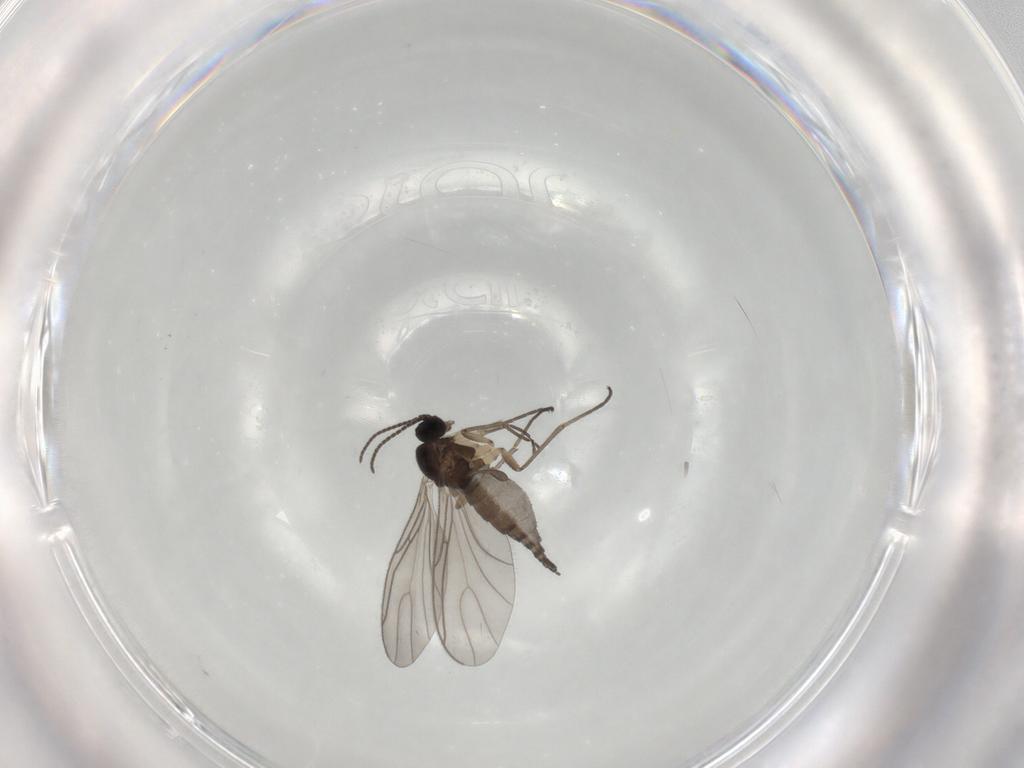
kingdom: Animalia
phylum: Arthropoda
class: Insecta
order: Diptera
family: Sciaridae
